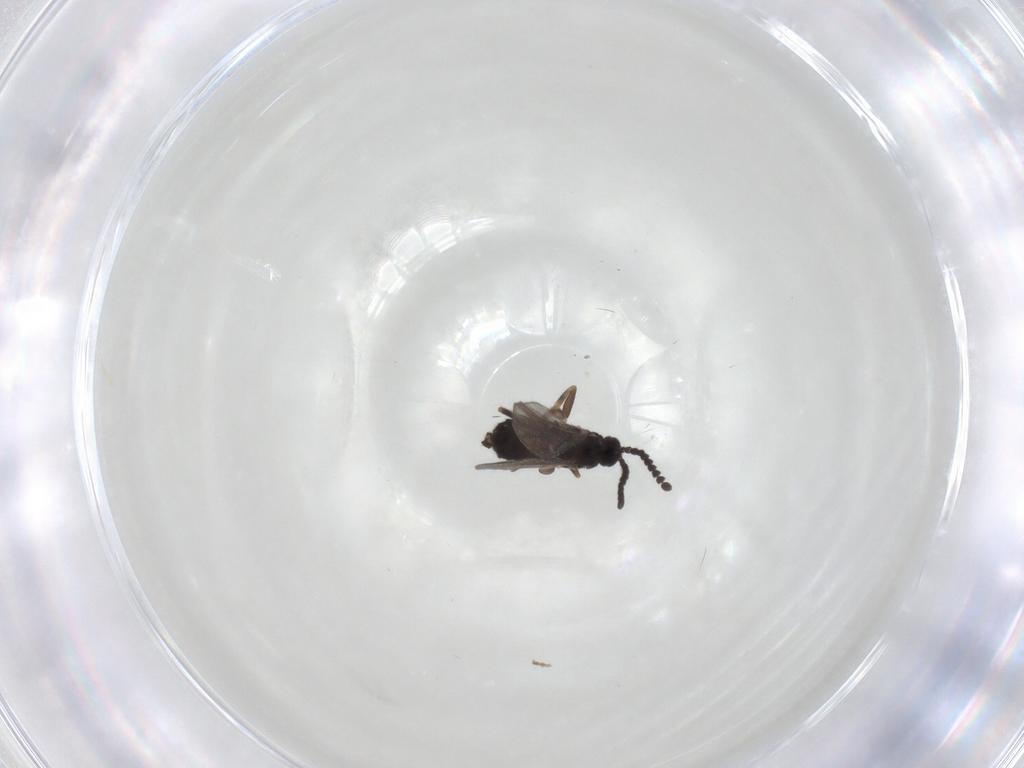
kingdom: Animalia
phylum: Arthropoda
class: Insecta
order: Diptera
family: Scatopsidae
